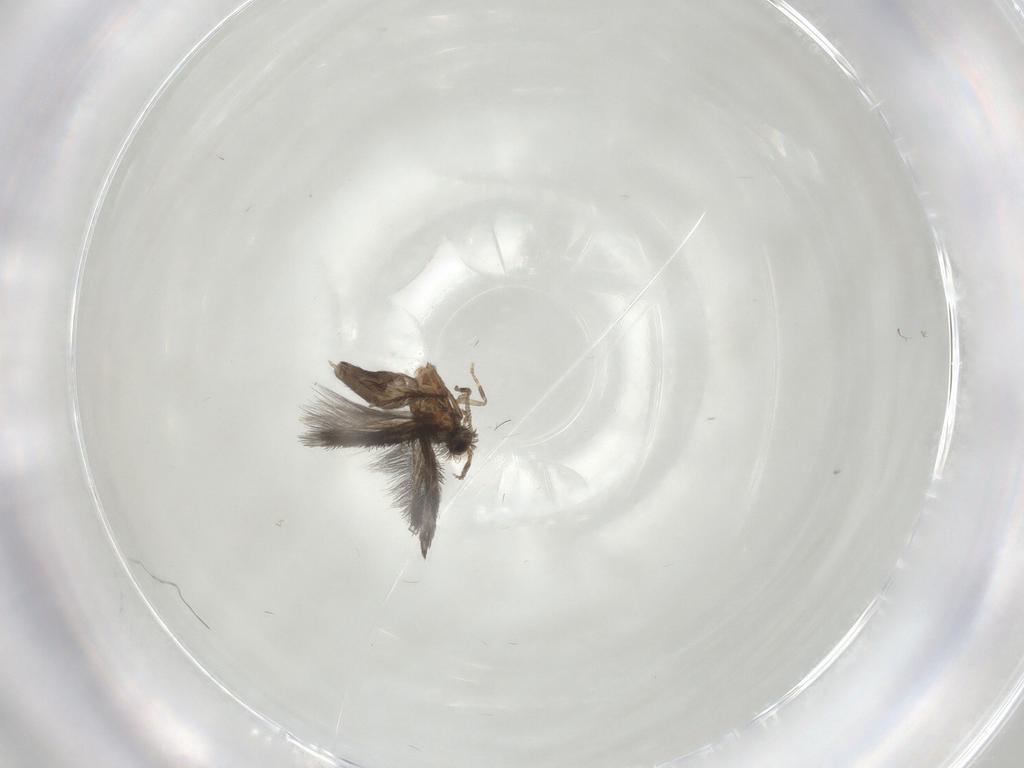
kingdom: Animalia
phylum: Arthropoda
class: Insecta
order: Trichoptera
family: Hydroptilidae
